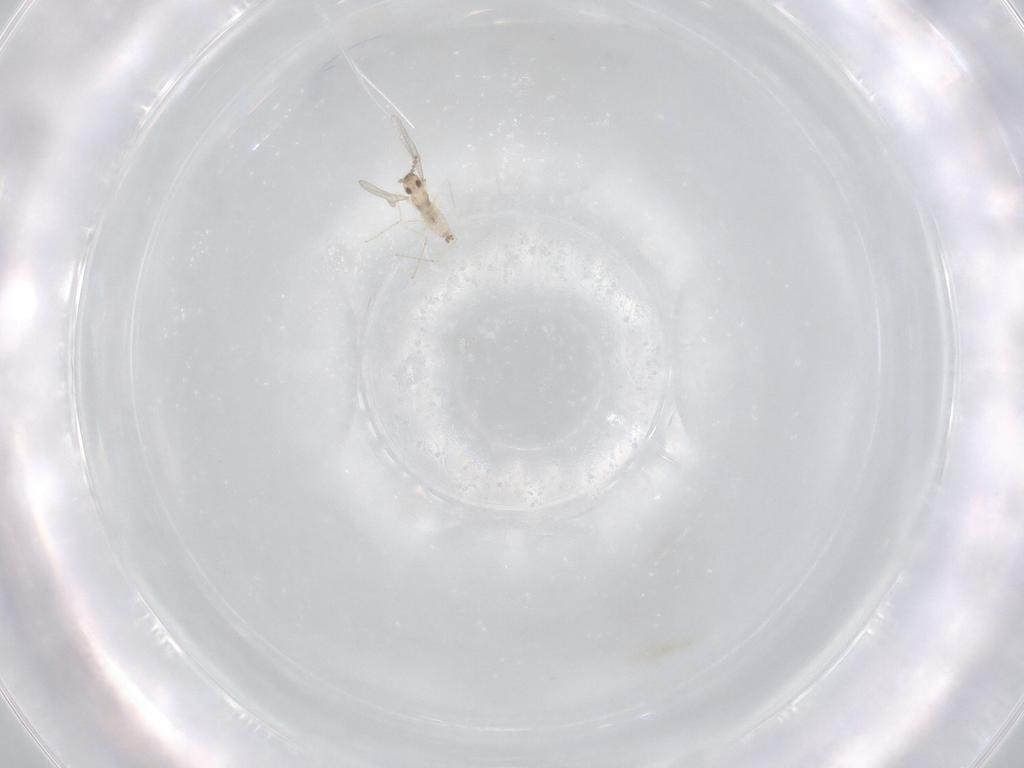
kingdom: Animalia
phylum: Arthropoda
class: Insecta
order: Diptera
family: Cecidomyiidae
